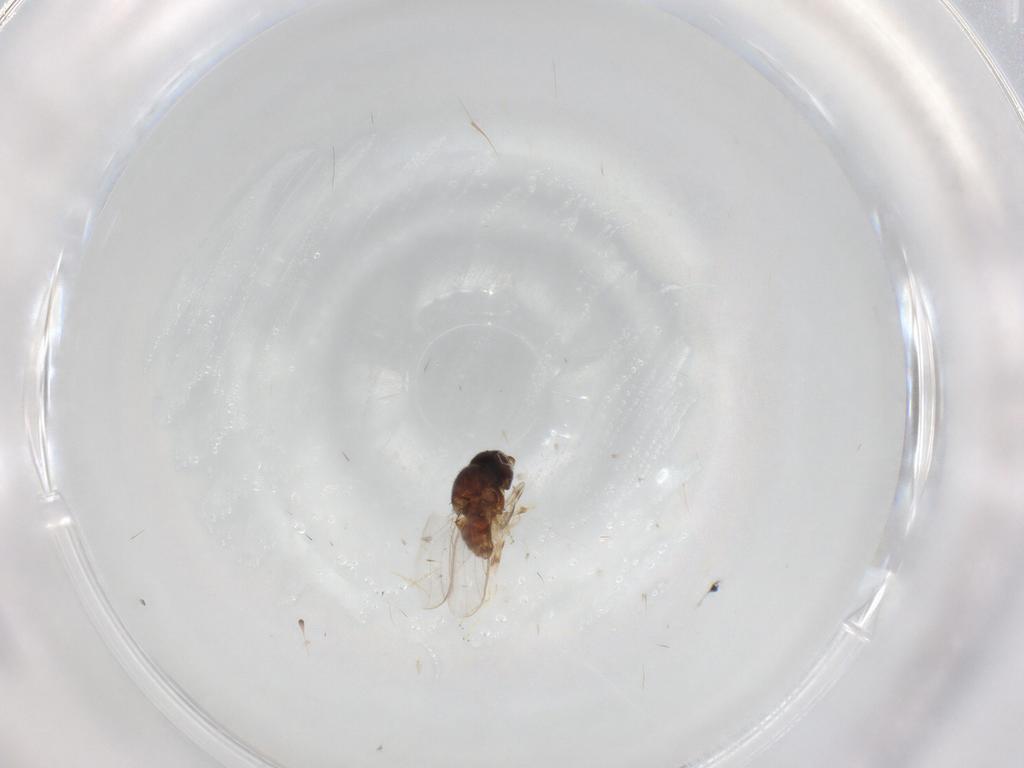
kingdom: Animalia
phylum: Arthropoda
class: Insecta
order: Diptera
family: Chloropidae
